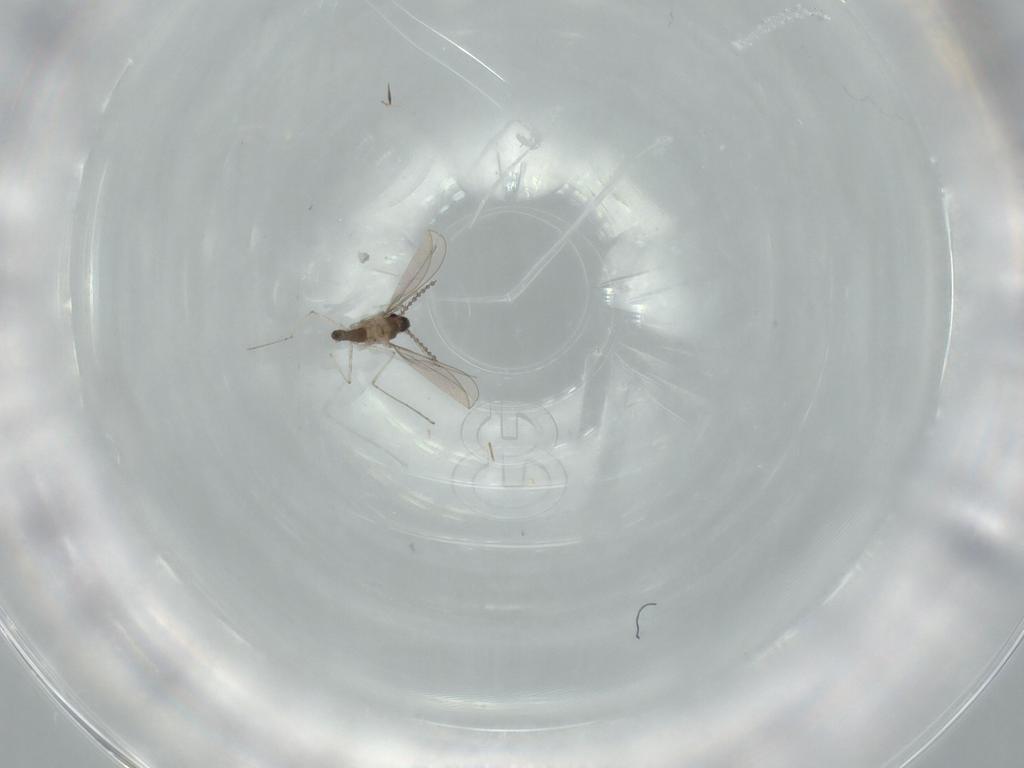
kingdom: Animalia
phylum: Arthropoda
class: Insecta
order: Diptera
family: Cecidomyiidae
